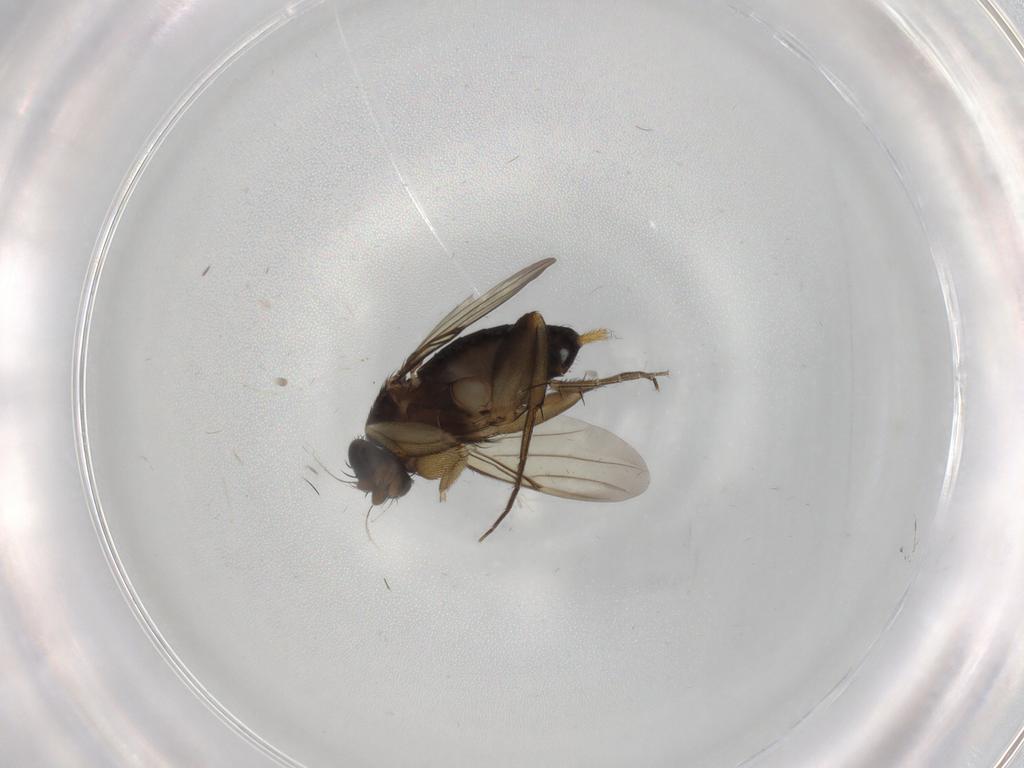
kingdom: Animalia
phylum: Arthropoda
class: Insecta
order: Diptera
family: Phoridae
